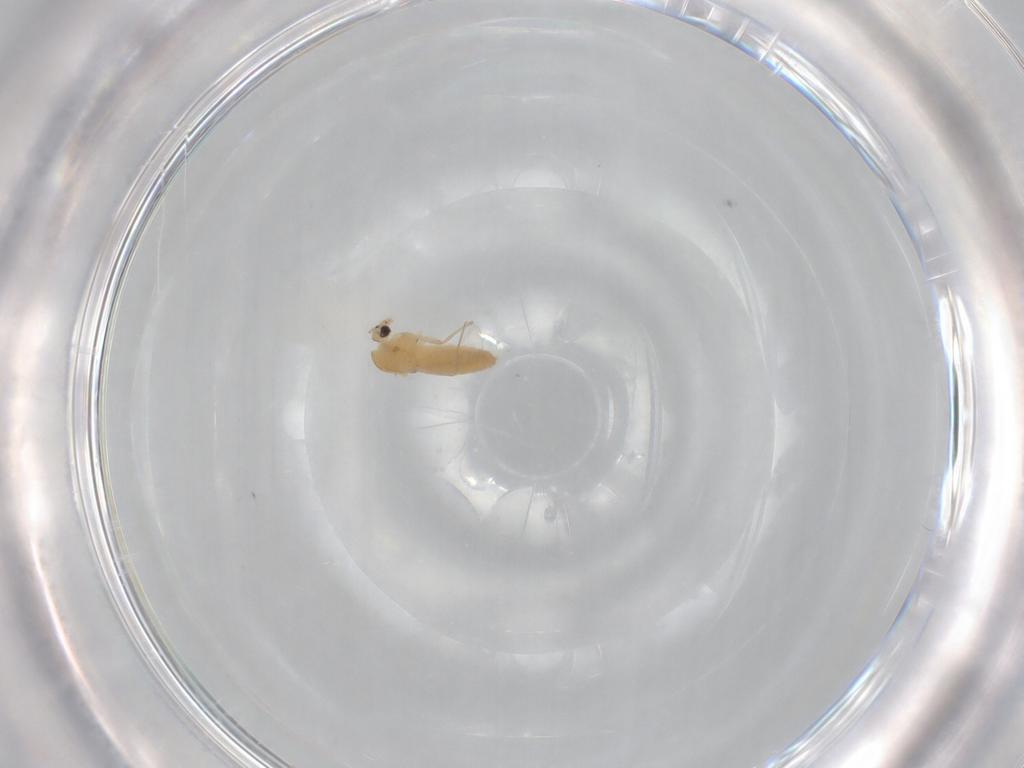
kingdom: Animalia
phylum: Arthropoda
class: Insecta
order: Diptera
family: Chironomidae
